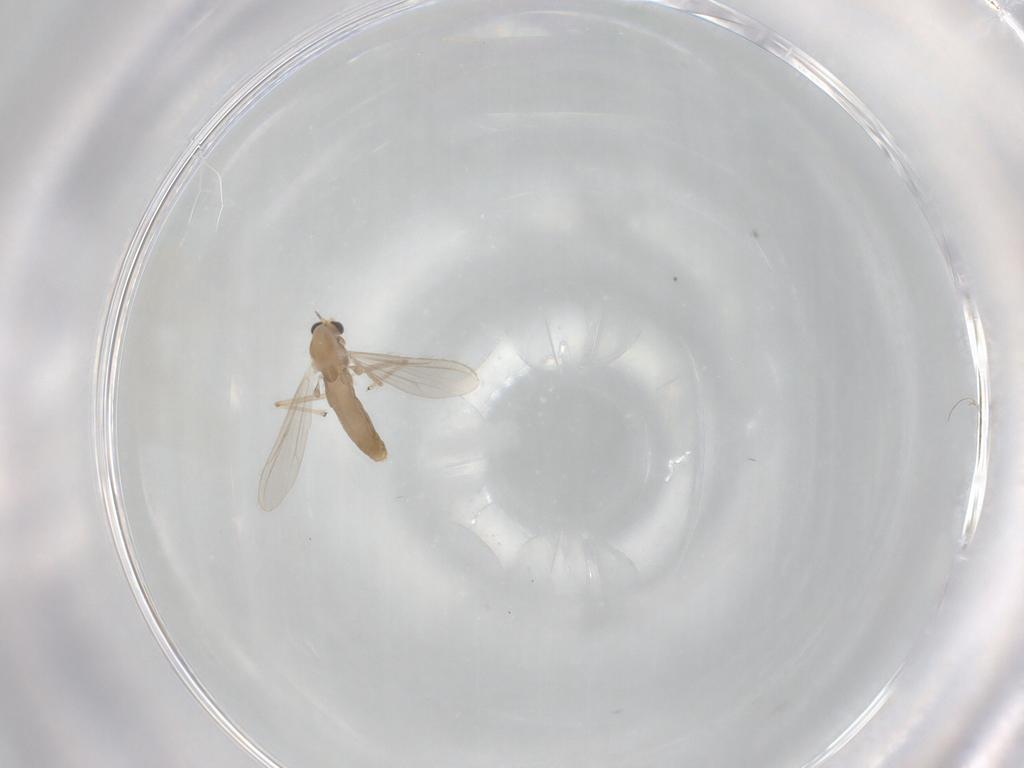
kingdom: Animalia
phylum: Arthropoda
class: Insecta
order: Diptera
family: Chironomidae
